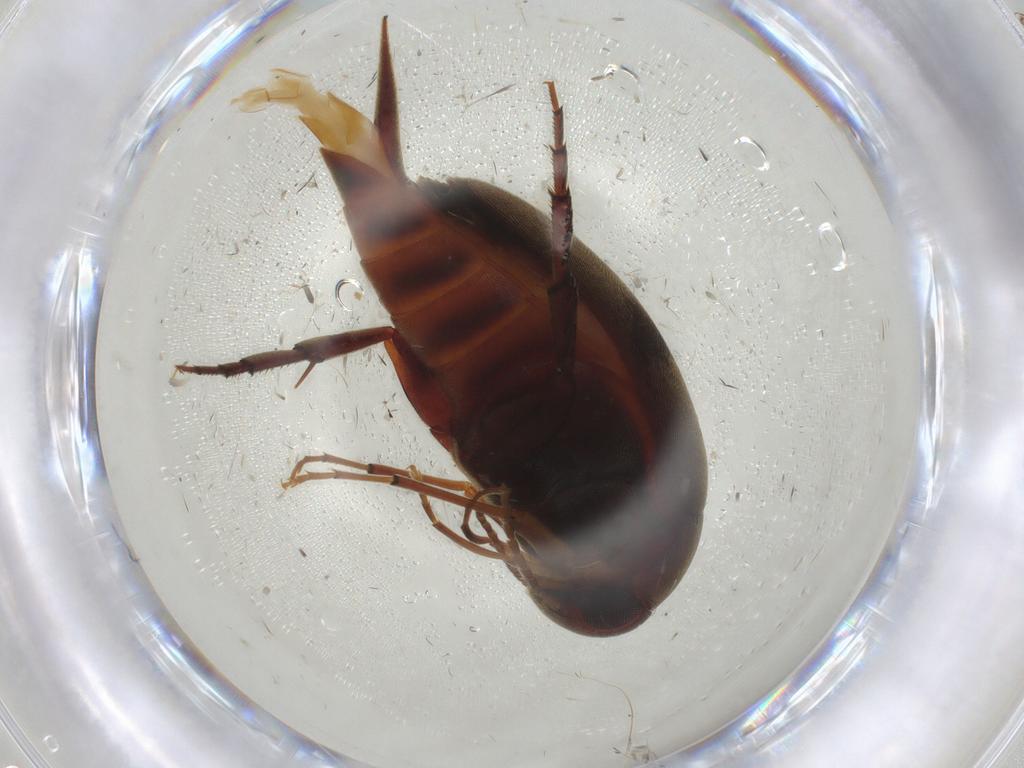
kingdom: Animalia
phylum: Arthropoda
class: Insecta
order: Coleoptera
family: Mordellidae
